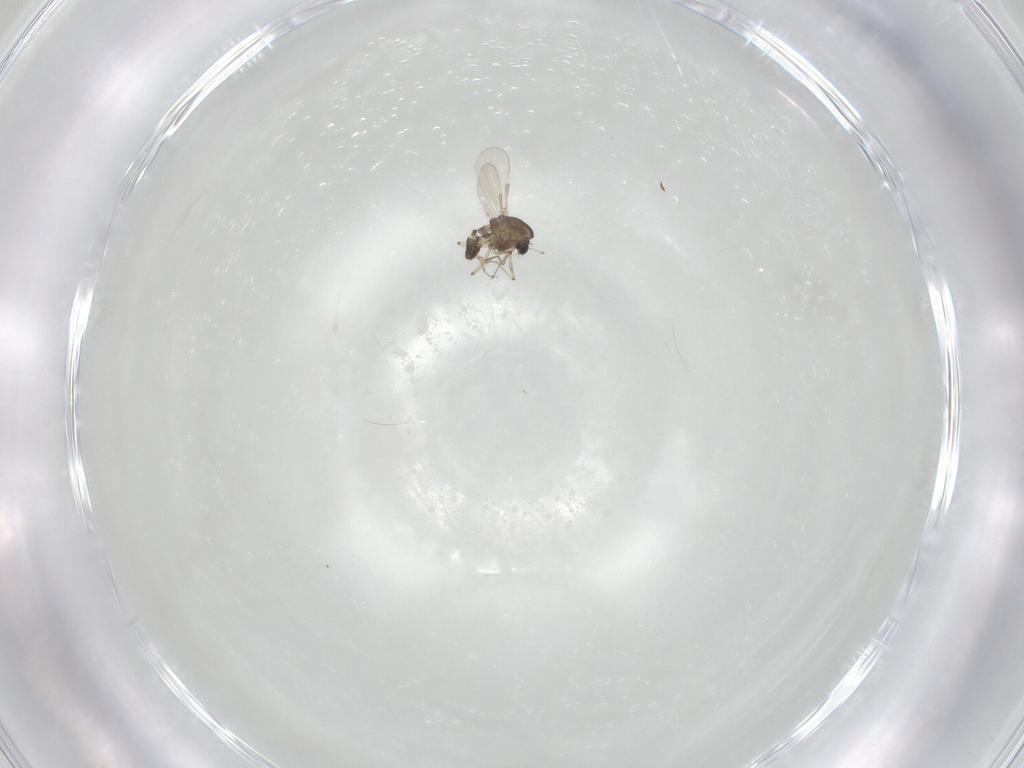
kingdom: Animalia
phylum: Arthropoda
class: Insecta
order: Diptera
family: Chironomidae
